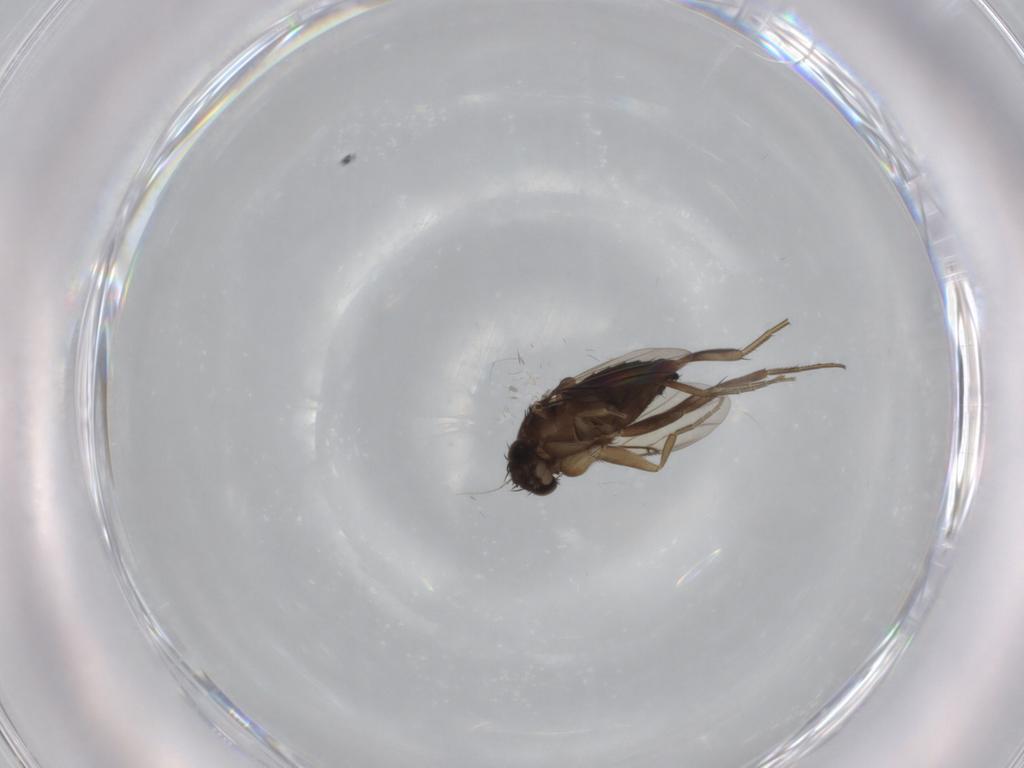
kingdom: Animalia
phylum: Arthropoda
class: Insecta
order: Diptera
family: Phoridae
